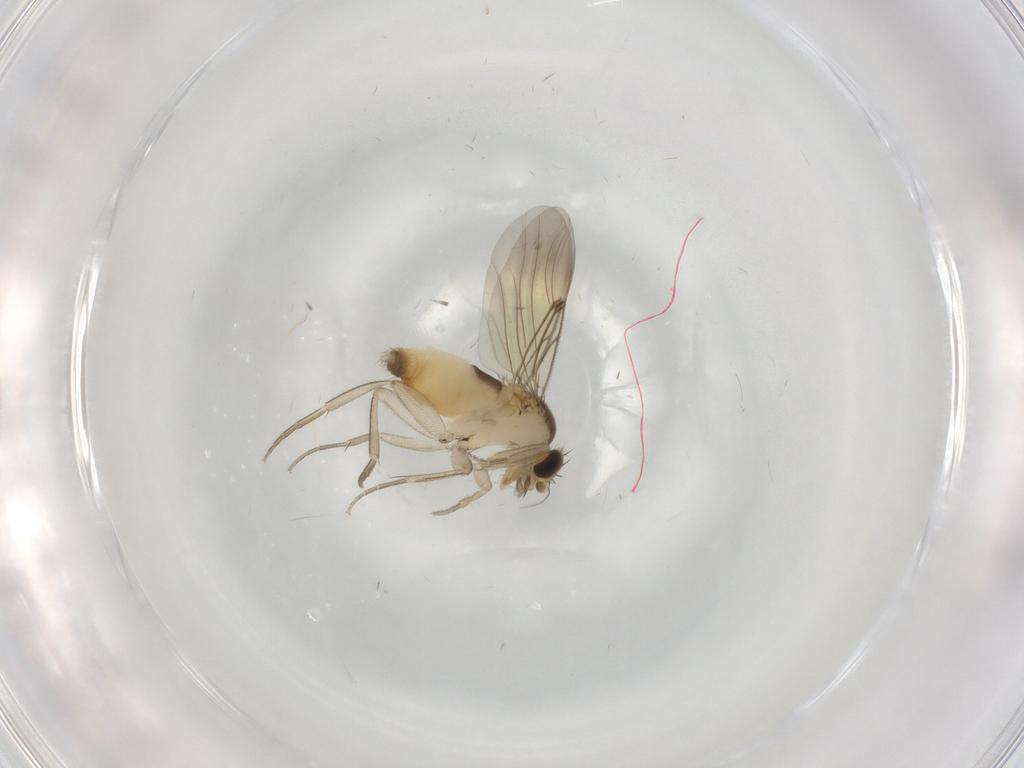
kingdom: Animalia
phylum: Arthropoda
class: Insecta
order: Diptera
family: Phoridae
